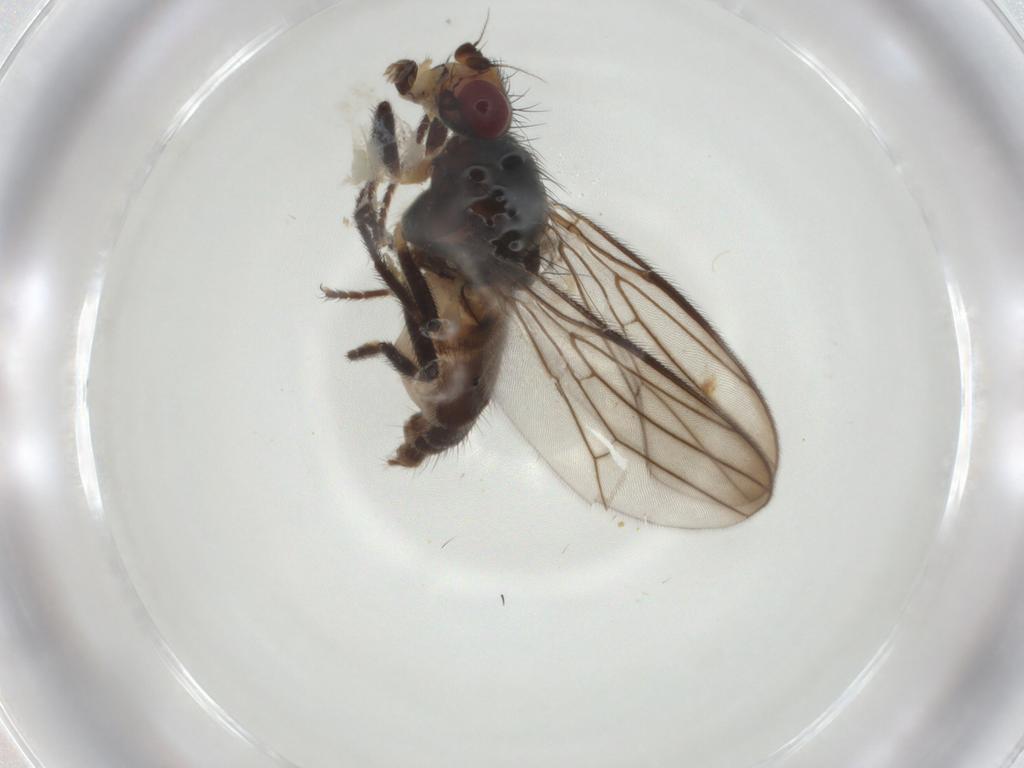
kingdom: Animalia
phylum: Arthropoda
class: Insecta
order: Diptera
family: Chloropidae
